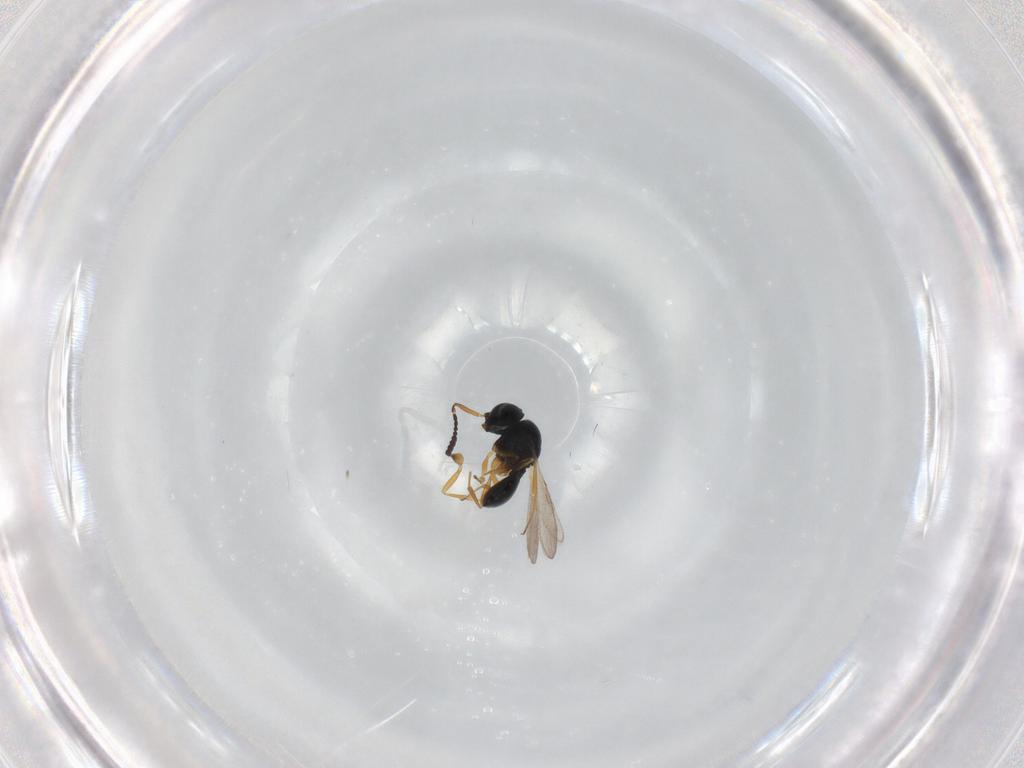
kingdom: Animalia
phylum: Arthropoda
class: Insecta
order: Hymenoptera
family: Scelionidae
